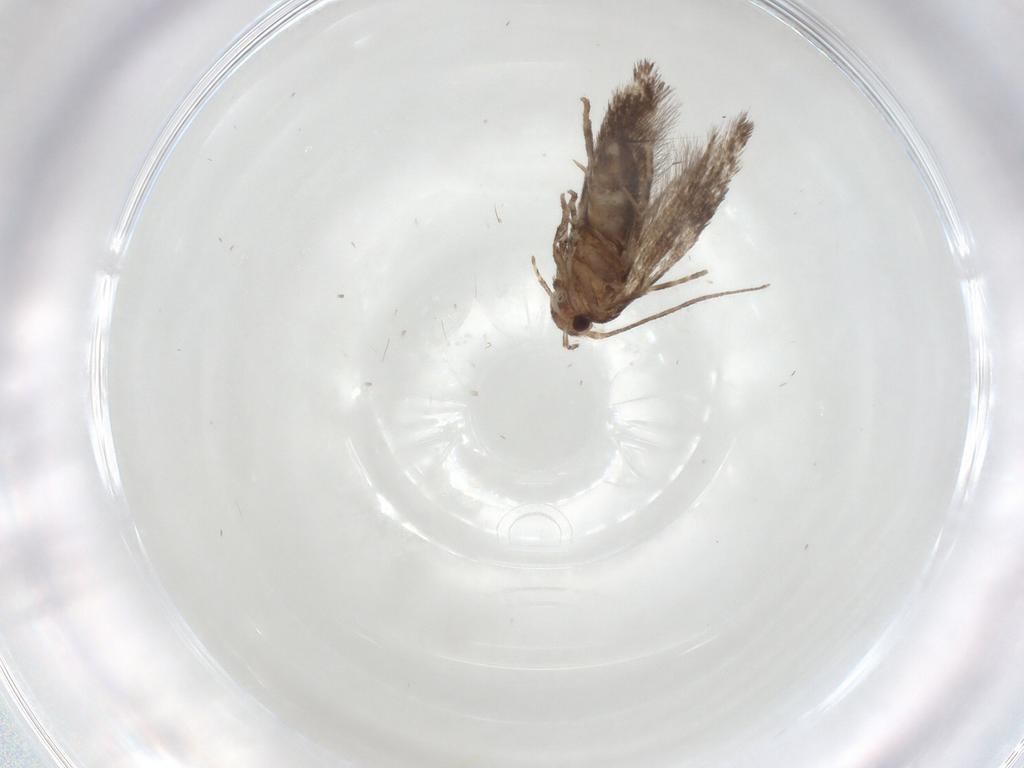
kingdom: Animalia
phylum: Arthropoda
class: Insecta
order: Lepidoptera
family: Elachistidae
